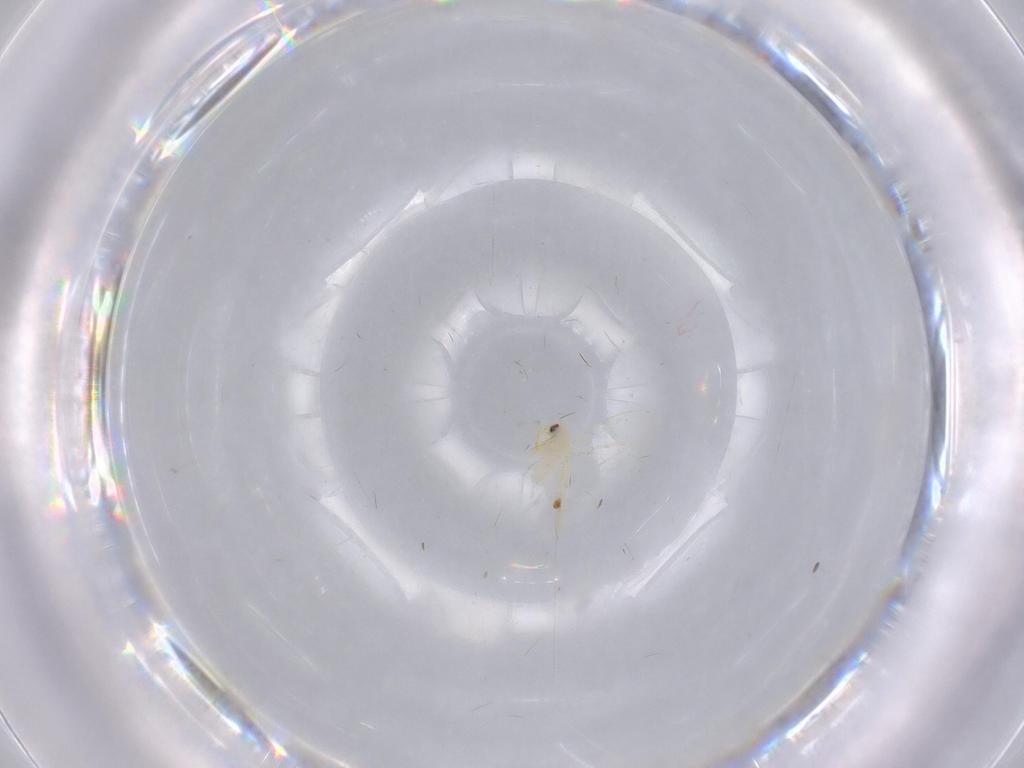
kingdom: Animalia
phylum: Arthropoda
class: Insecta
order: Hemiptera
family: Aleyrodidae
